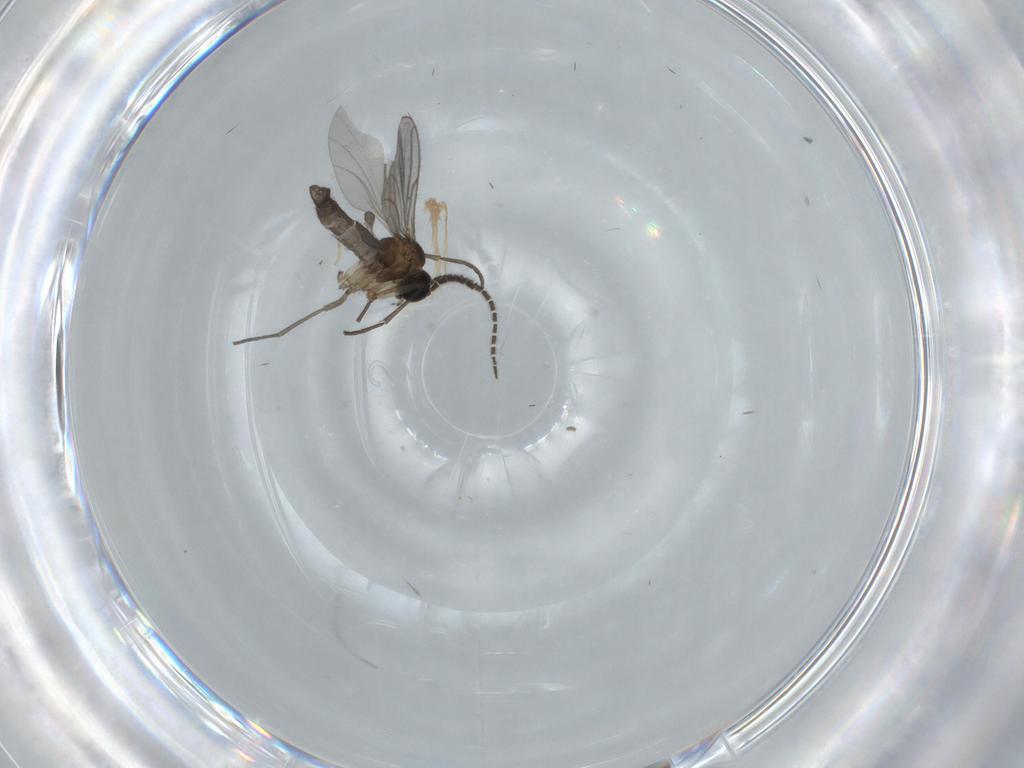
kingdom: Animalia
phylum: Arthropoda
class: Insecta
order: Diptera
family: Sciaridae
